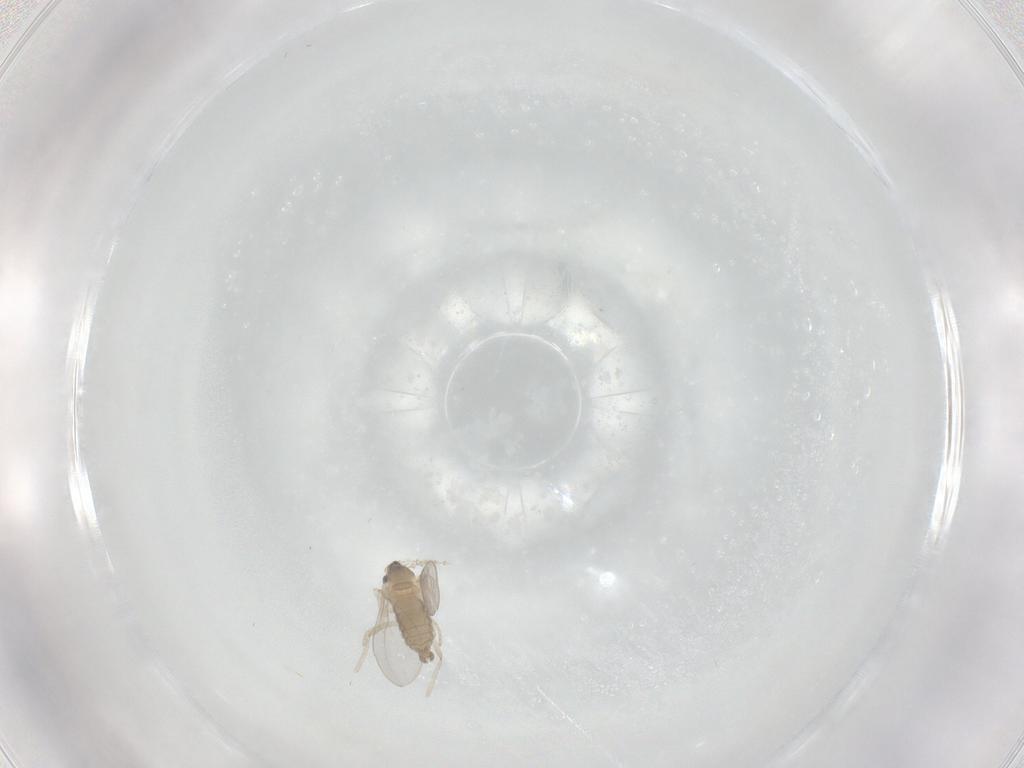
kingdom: Animalia
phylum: Arthropoda
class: Insecta
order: Diptera
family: Cecidomyiidae
